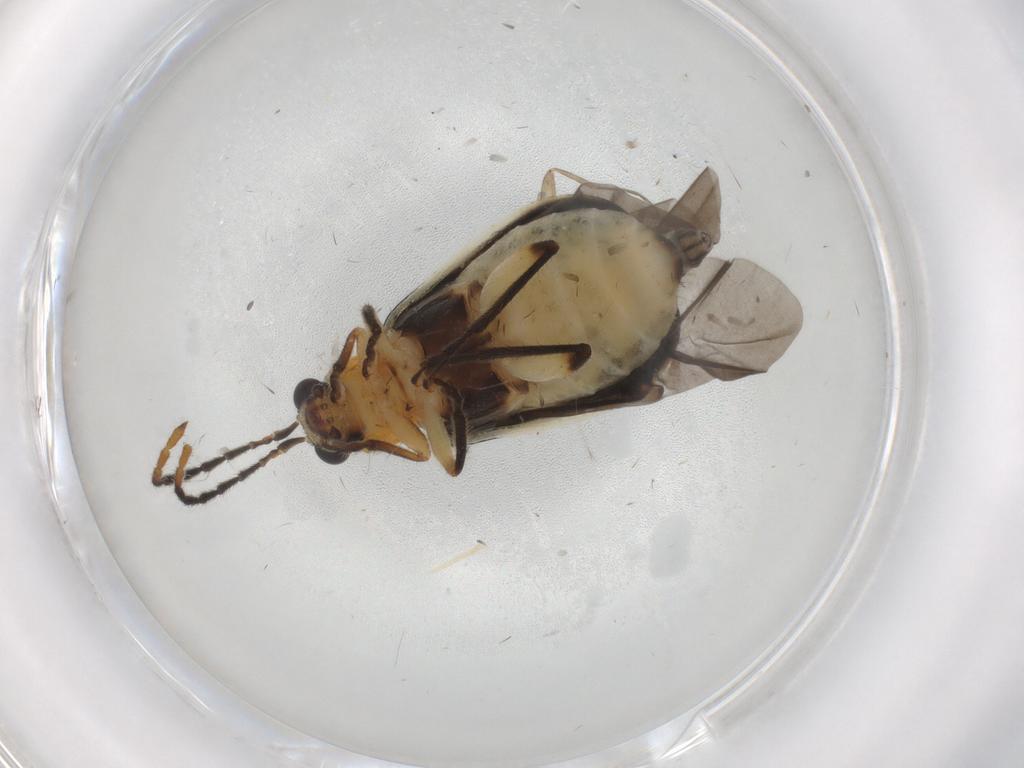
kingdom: Animalia
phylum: Arthropoda
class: Insecta
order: Coleoptera
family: Chrysomelidae
